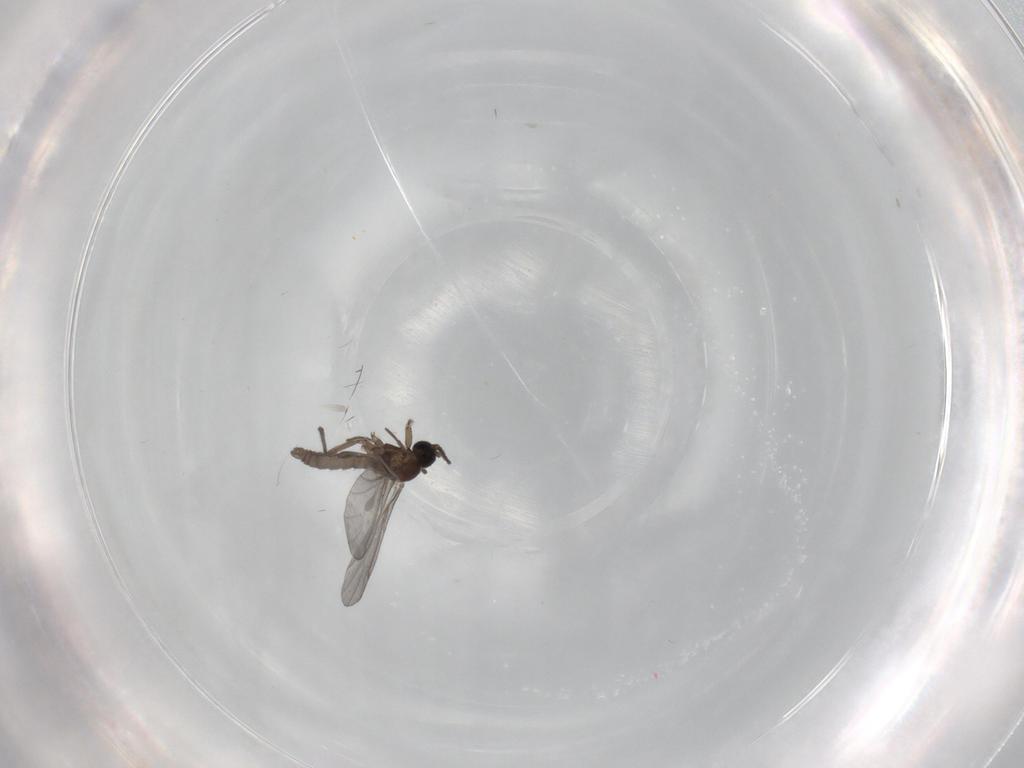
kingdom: Animalia
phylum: Arthropoda
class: Insecta
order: Diptera
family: Sciaridae
